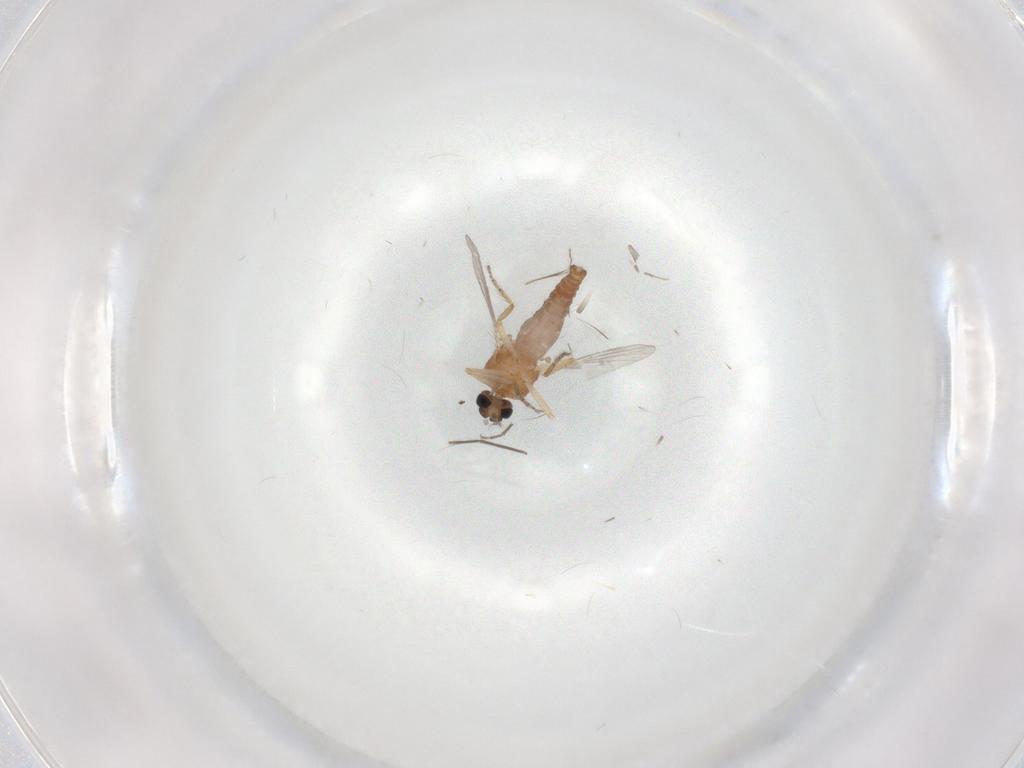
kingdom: Animalia
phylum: Arthropoda
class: Insecta
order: Diptera
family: Ceratopogonidae
